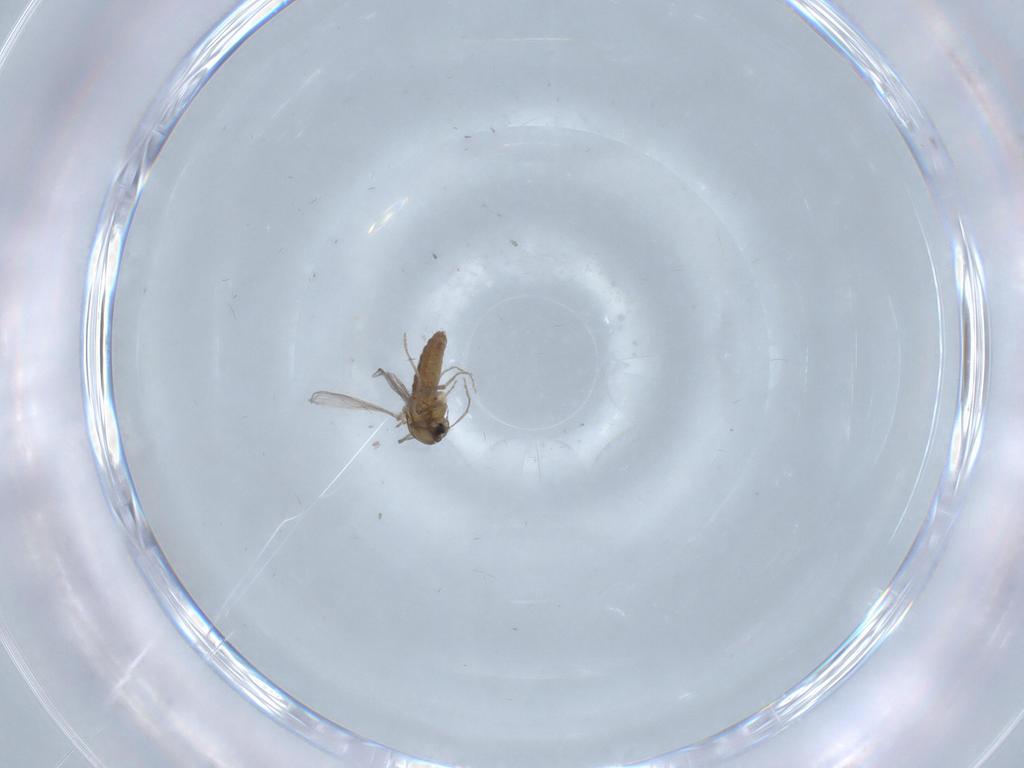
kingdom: Animalia
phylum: Arthropoda
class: Insecta
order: Diptera
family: Chironomidae
